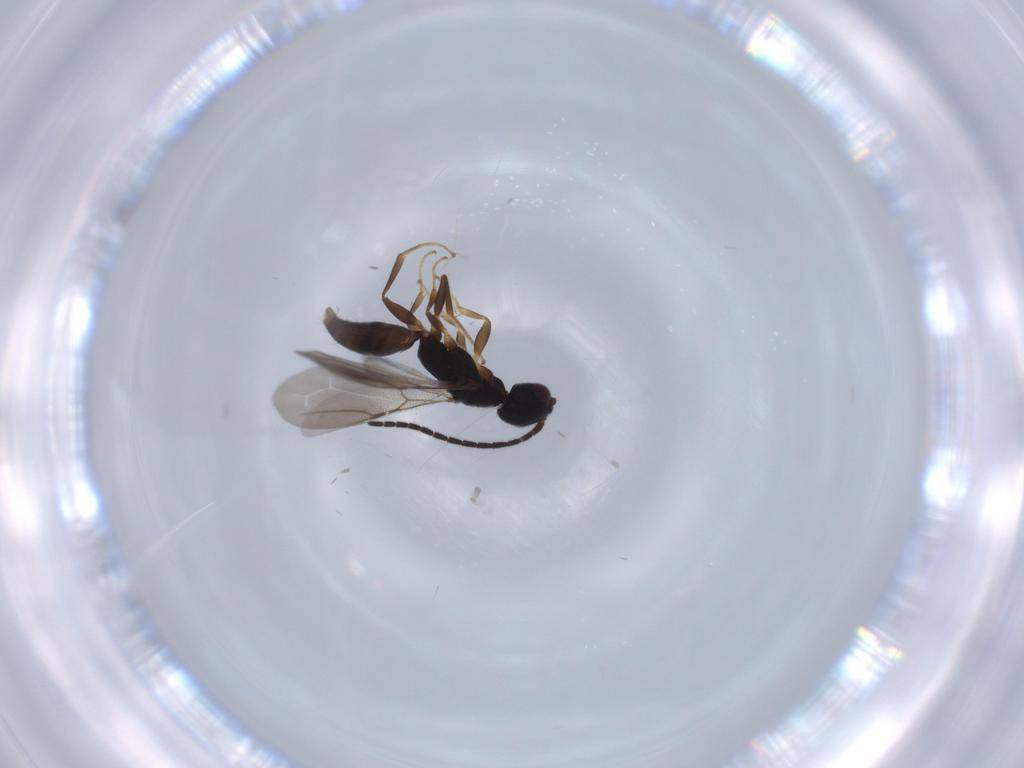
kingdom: Animalia
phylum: Arthropoda
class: Insecta
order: Hymenoptera
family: Bethylidae
